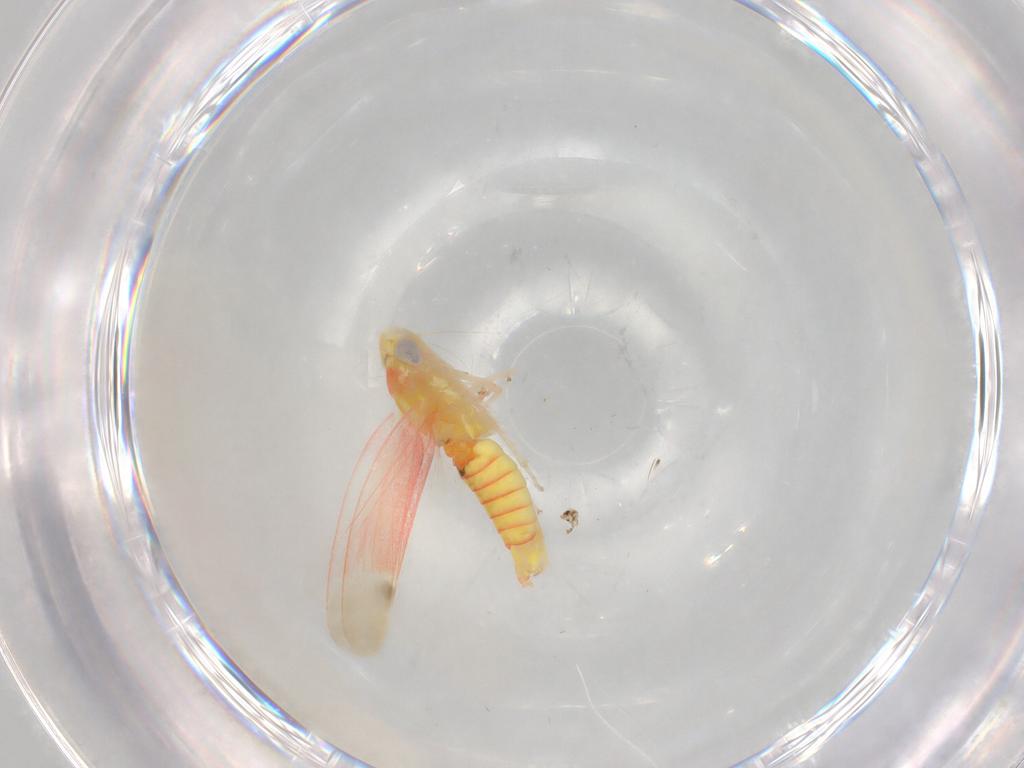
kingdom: Animalia
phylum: Arthropoda
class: Insecta
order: Hemiptera
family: Cicadellidae
